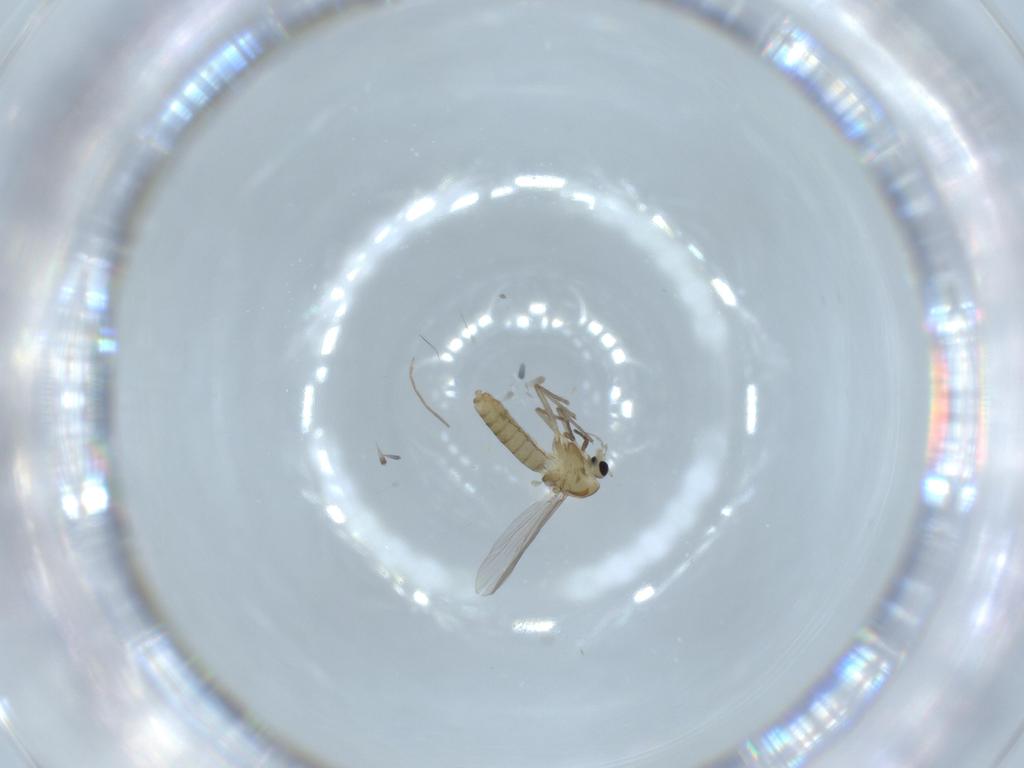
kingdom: Animalia
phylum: Arthropoda
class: Insecta
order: Diptera
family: Chironomidae
